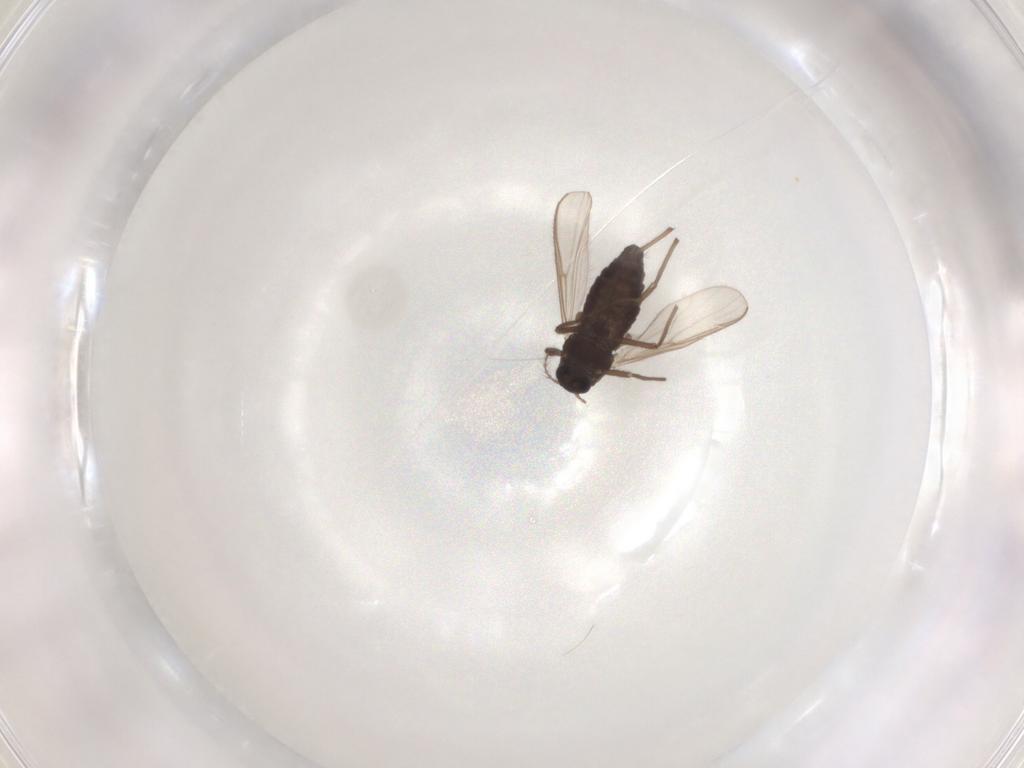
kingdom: Animalia
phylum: Arthropoda
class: Insecta
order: Diptera
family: Chironomidae
